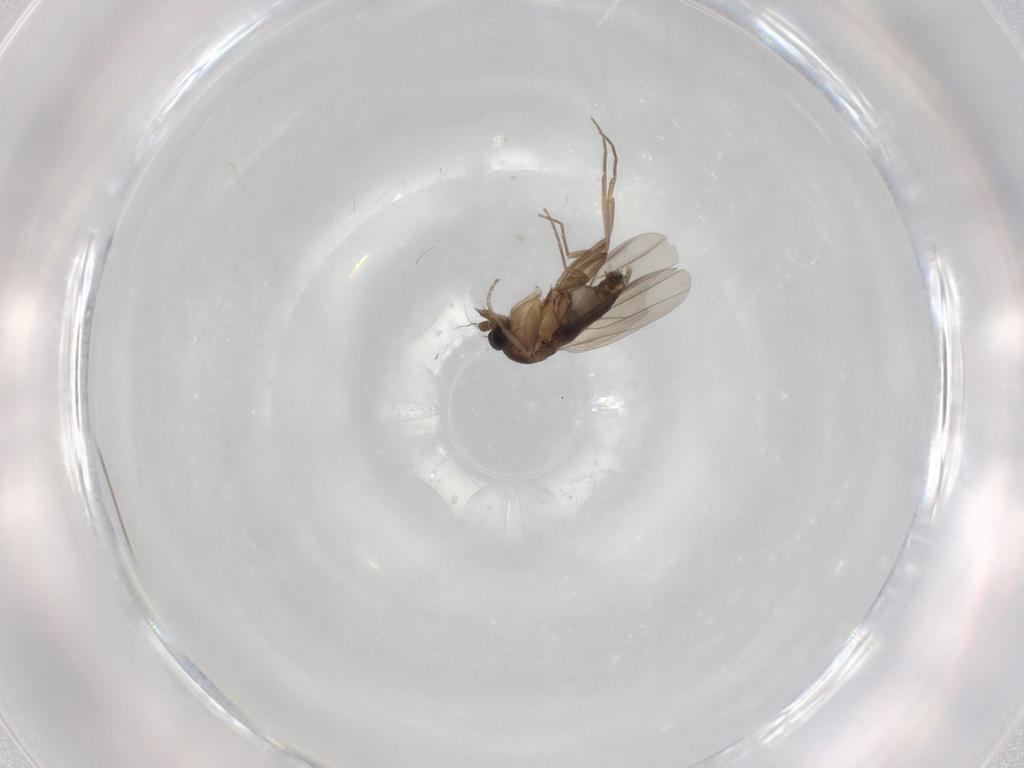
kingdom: Animalia
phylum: Arthropoda
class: Insecta
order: Diptera
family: Phoridae
